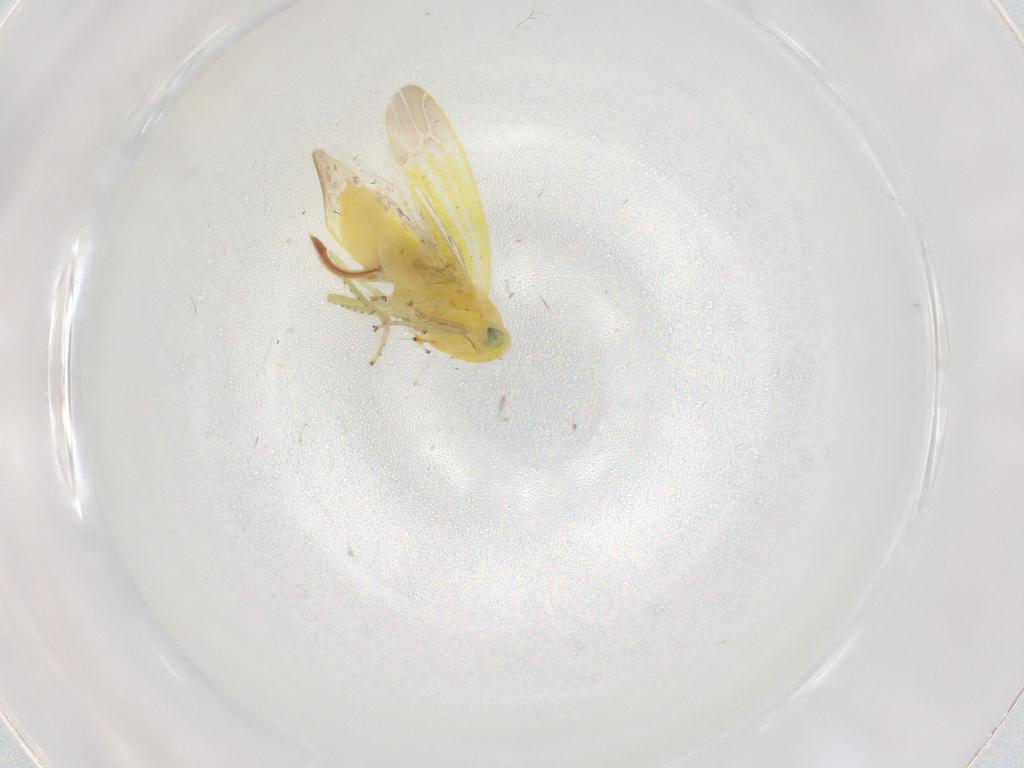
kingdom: Animalia
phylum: Arthropoda
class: Insecta
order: Hemiptera
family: Cicadellidae
